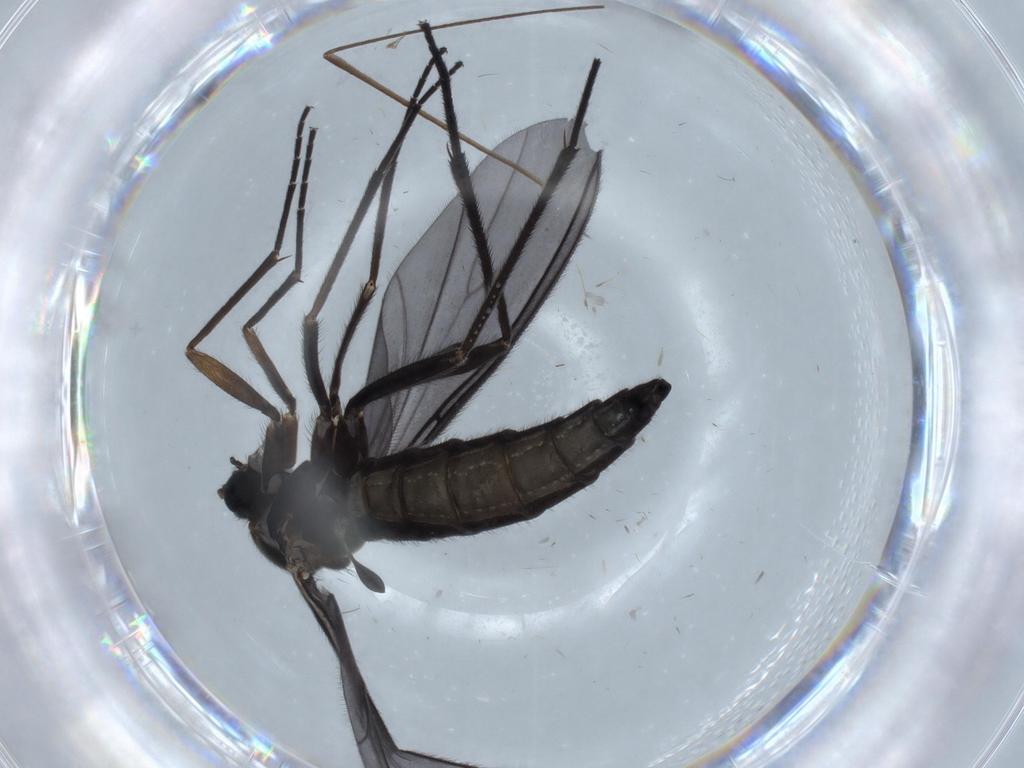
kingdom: Animalia
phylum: Arthropoda
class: Insecta
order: Diptera
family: Sciaridae
